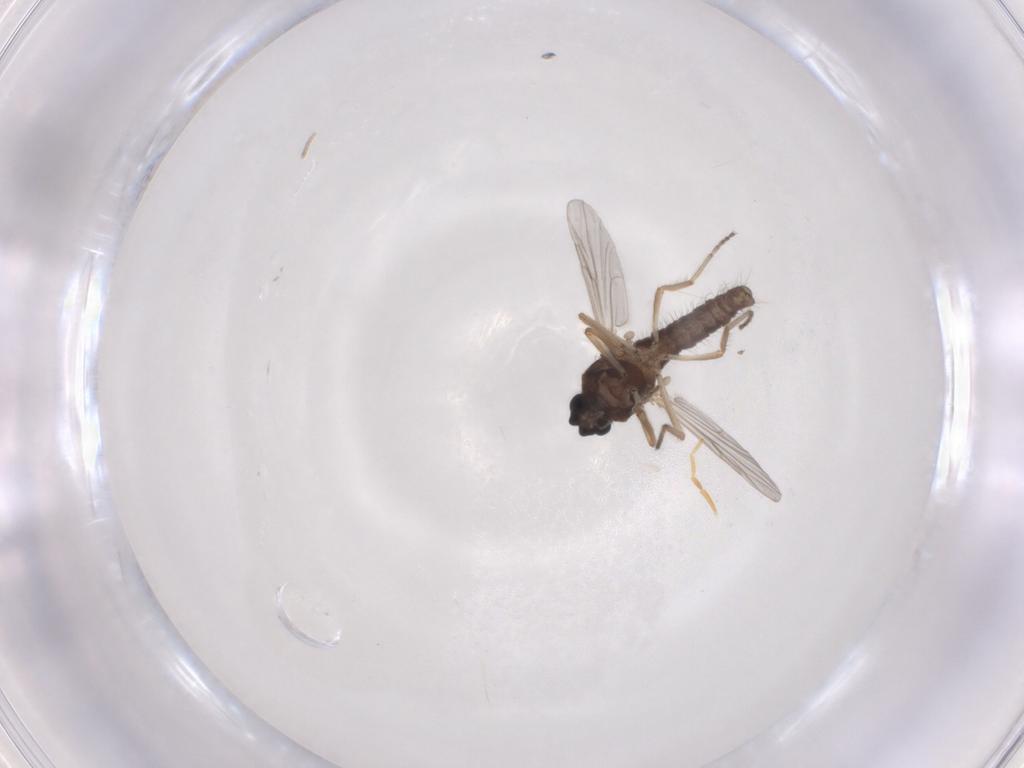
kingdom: Animalia
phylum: Arthropoda
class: Insecta
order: Diptera
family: Ceratopogonidae
